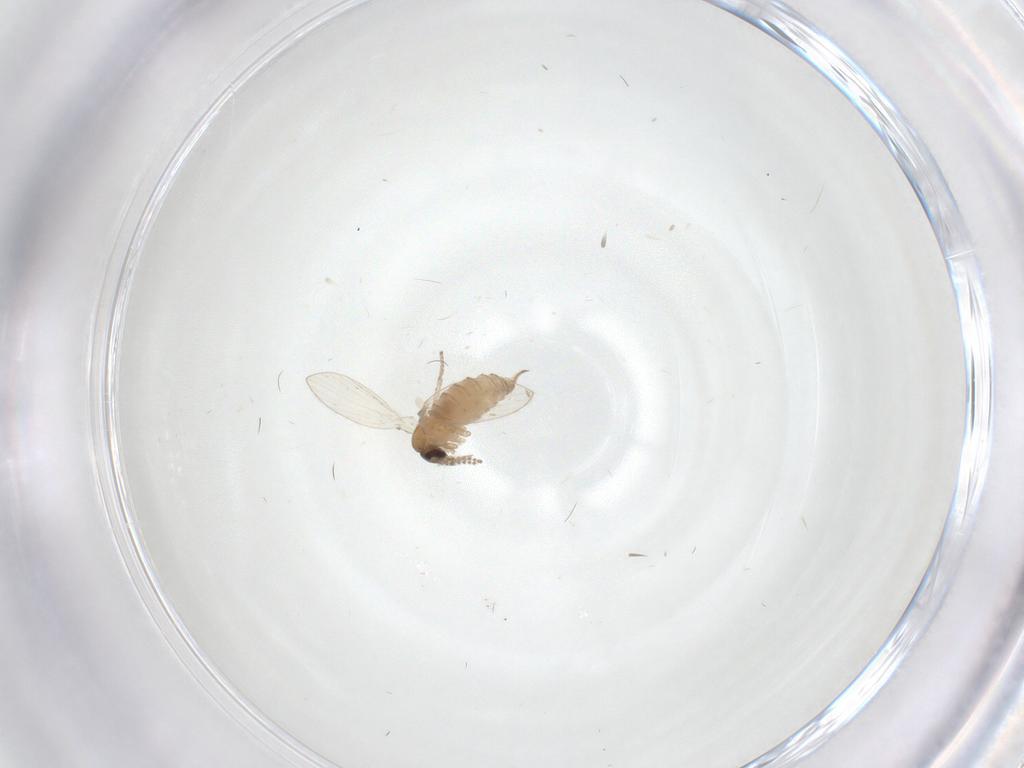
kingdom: Animalia
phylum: Arthropoda
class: Insecta
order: Diptera
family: Psychodidae
